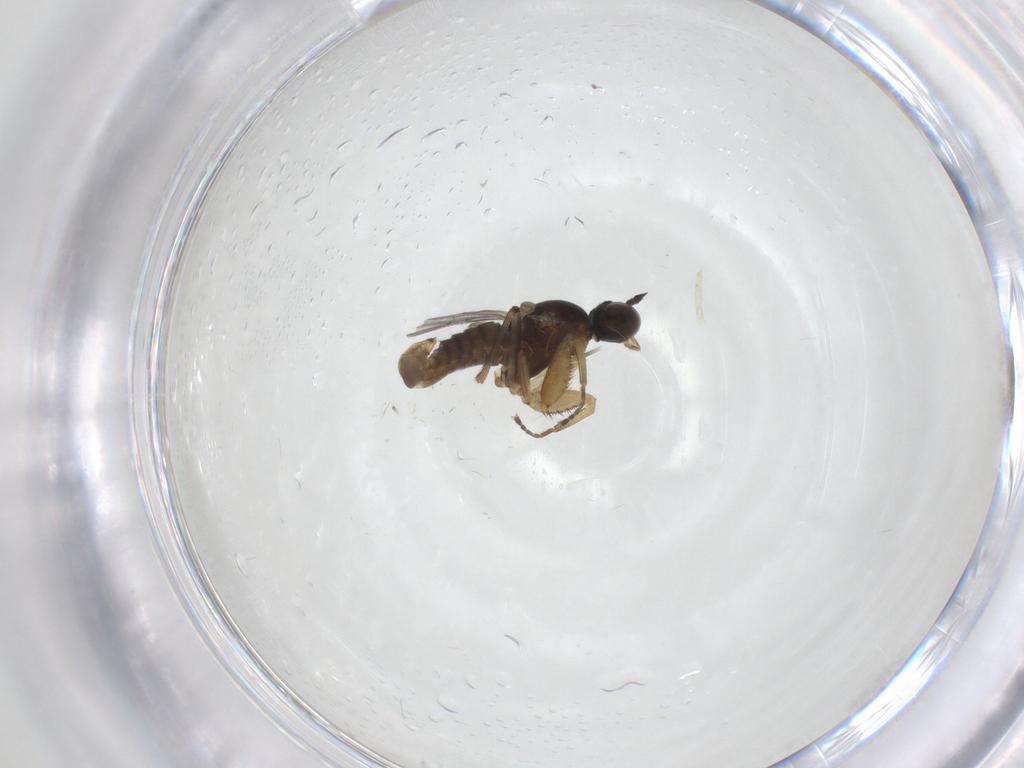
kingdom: Animalia
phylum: Arthropoda
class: Insecta
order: Diptera
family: Empididae
